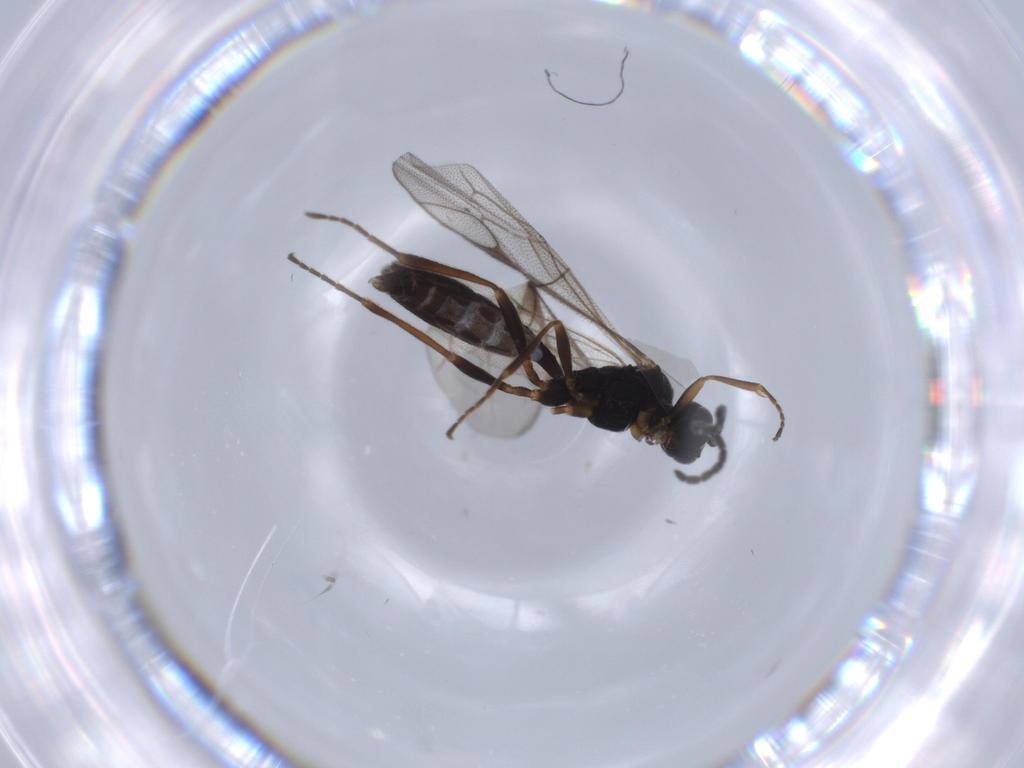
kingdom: Animalia
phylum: Arthropoda
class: Insecta
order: Hymenoptera
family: Ichneumonidae
